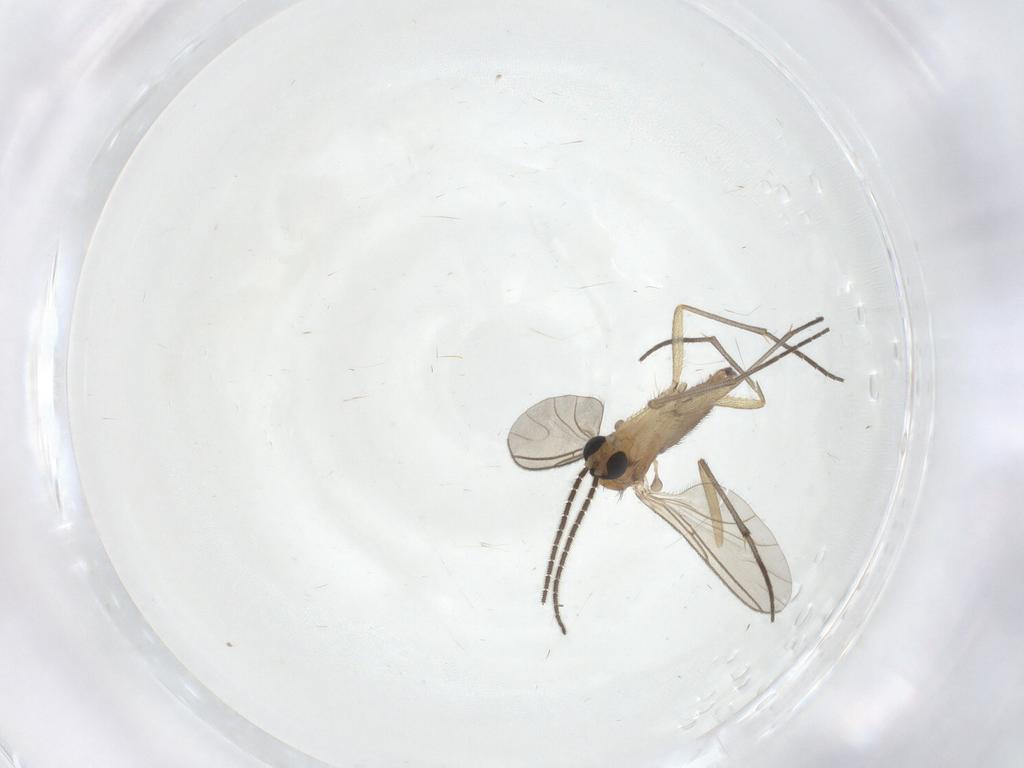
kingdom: Animalia
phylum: Arthropoda
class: Insecta
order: Diptera
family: Sciaridae
